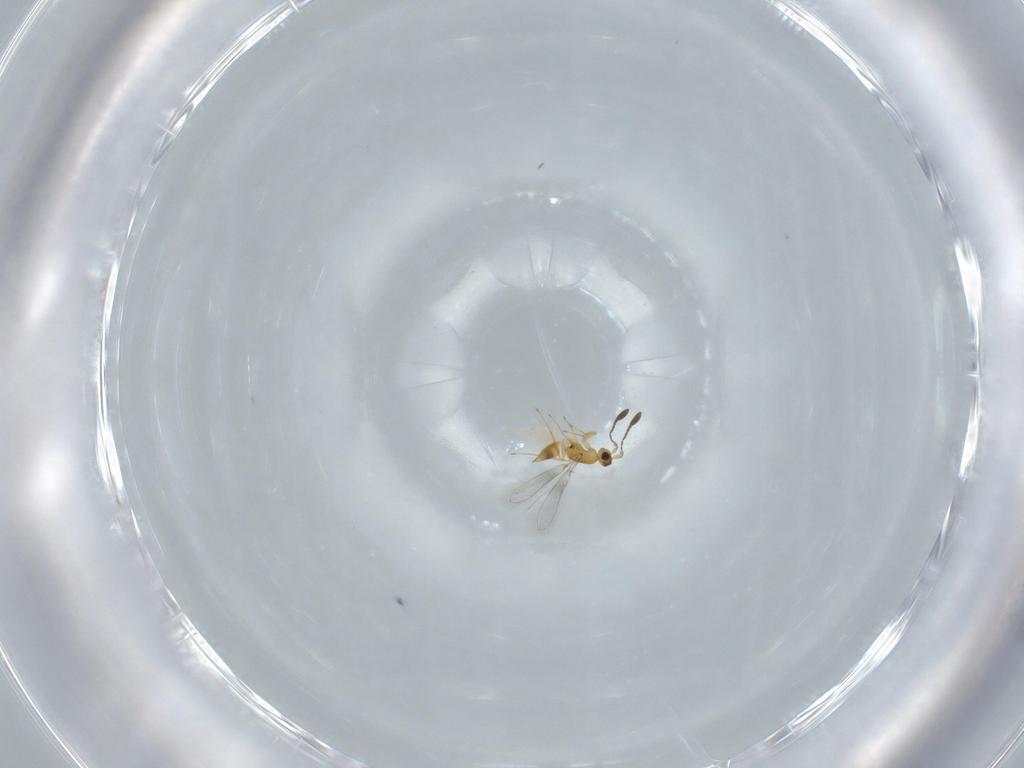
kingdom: Animalia
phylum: Arthropoda
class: Insecta
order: Hymenoptera
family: Mymaridae
